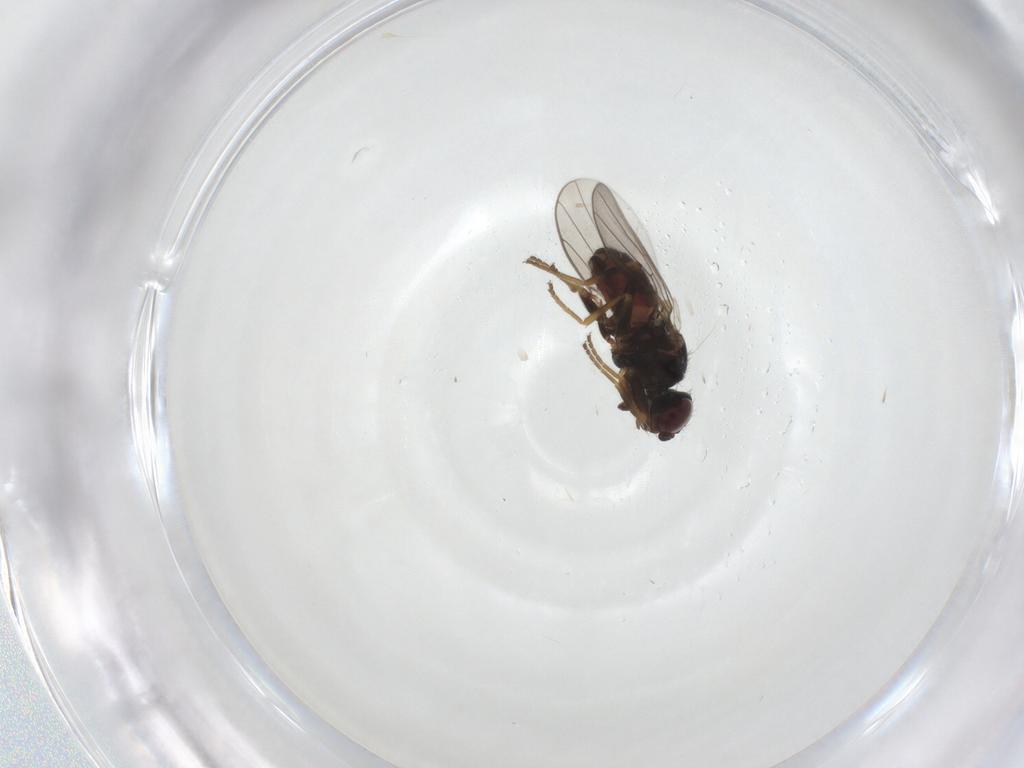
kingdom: Animalia
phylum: Arthropoda
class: Insecta
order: Diptera
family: Chloropidae
